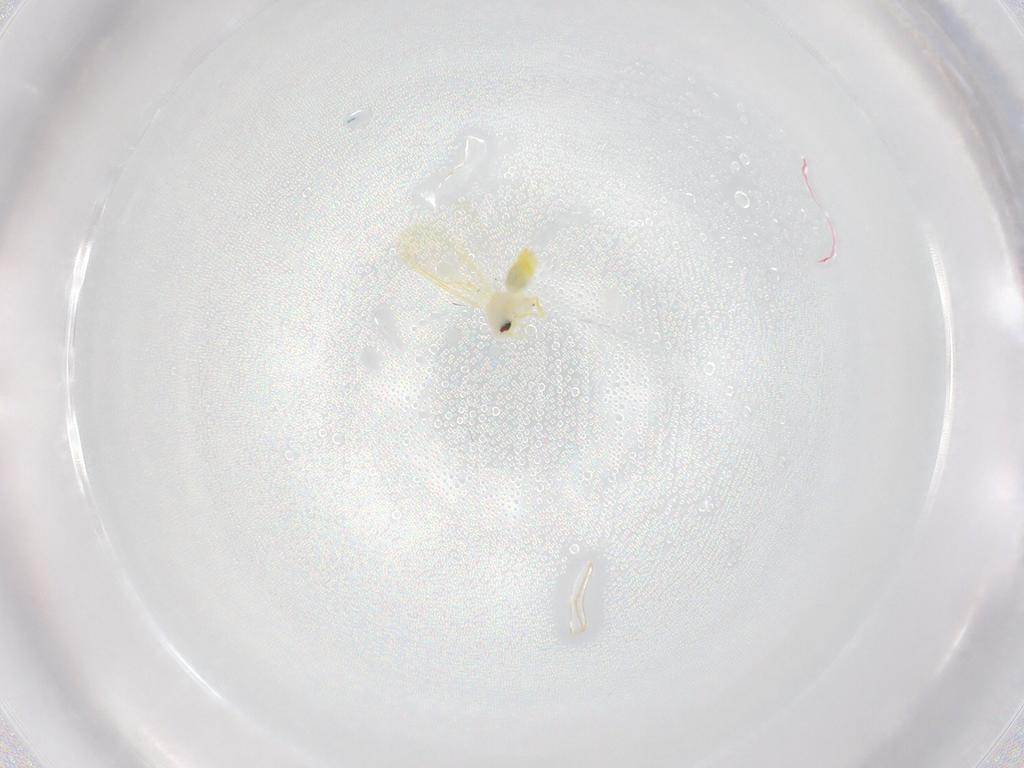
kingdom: Animalia
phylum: Arthropoda
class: Insecta
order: Hemiptera
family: Aleyrodidae
